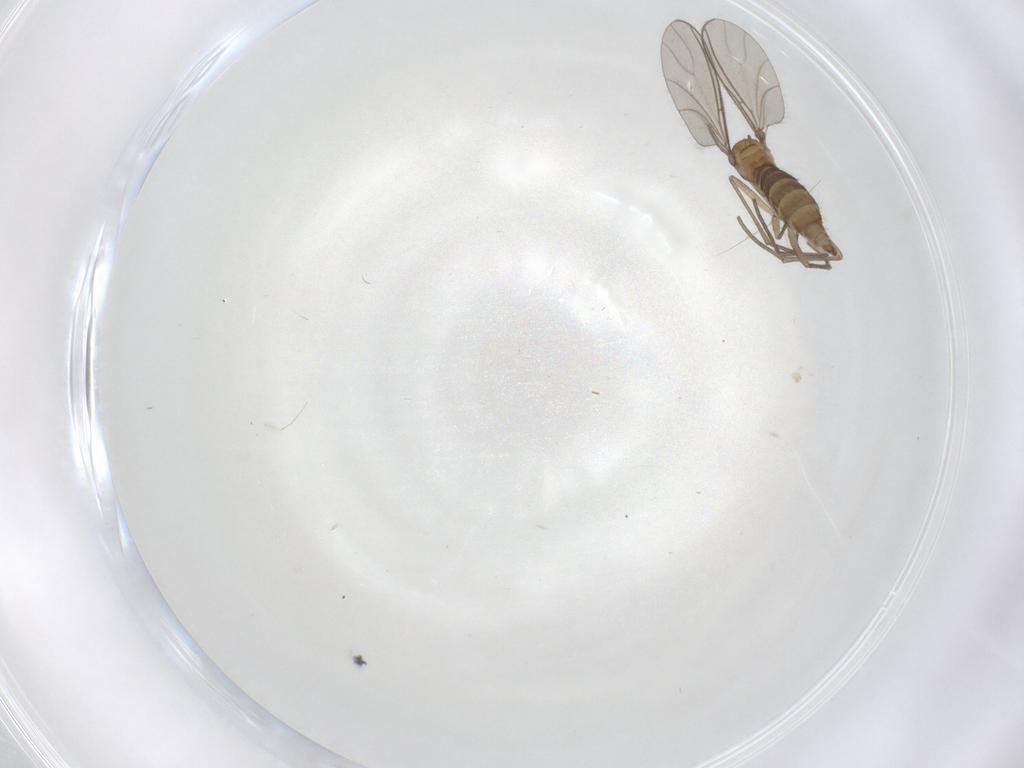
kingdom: Animalia
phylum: Arthropoda
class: Insecta
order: Diptera
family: Sciaridae
